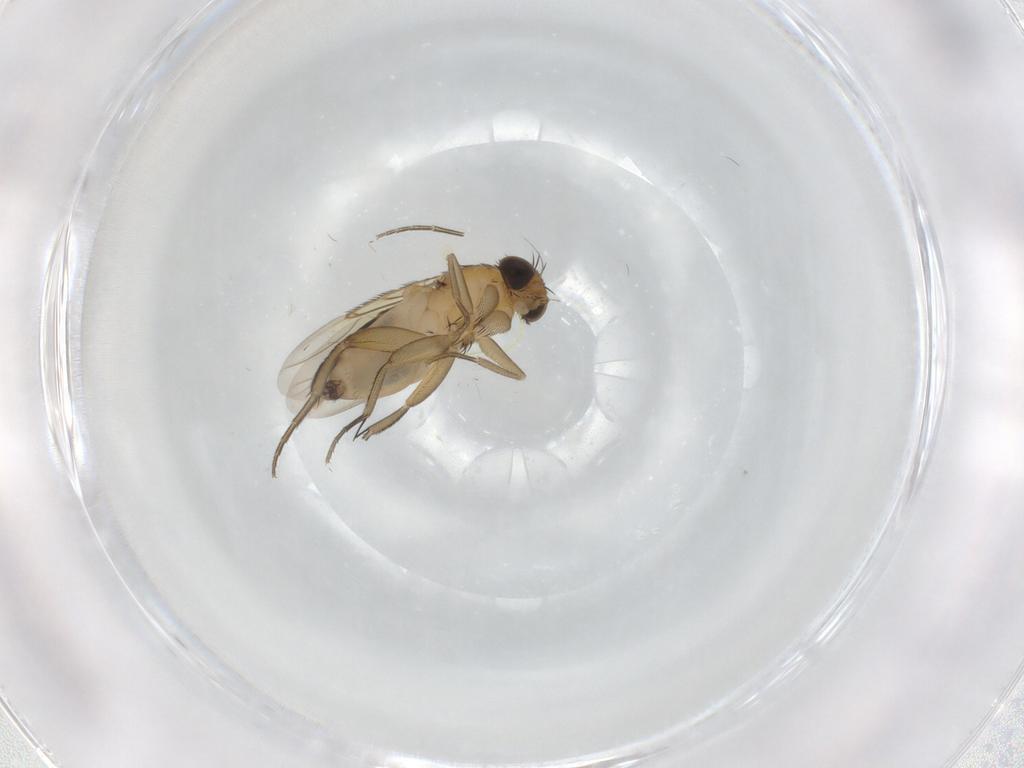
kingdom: Animalia
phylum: Arthropoda
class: Insecta
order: Diptera
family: Phoridae
